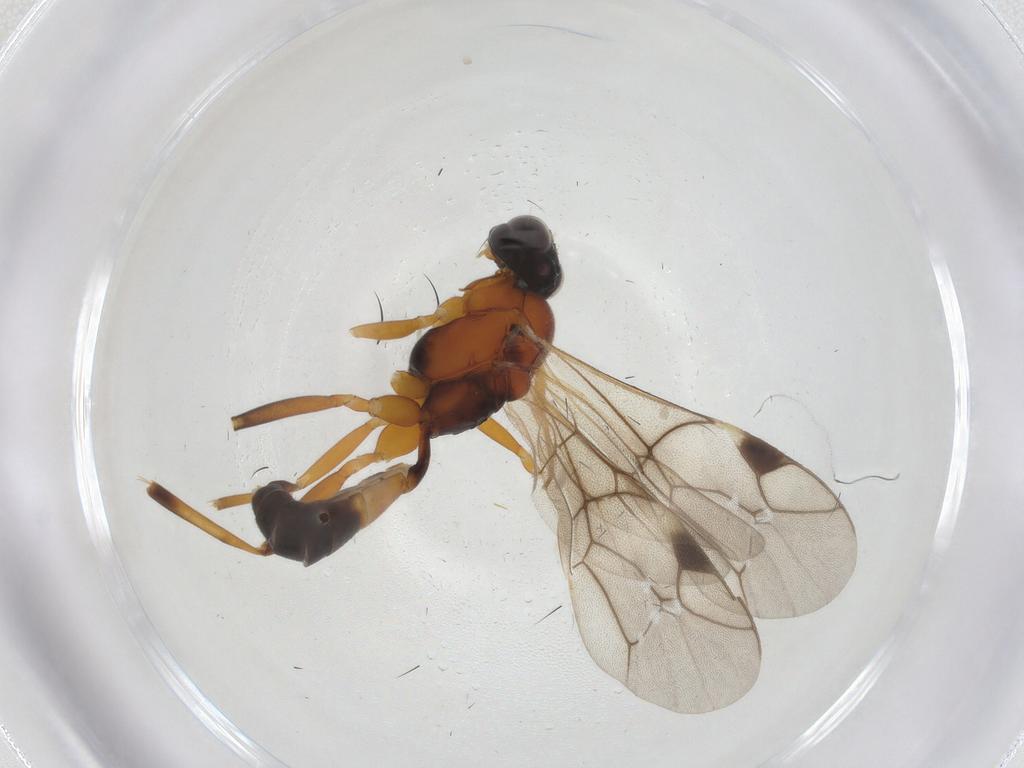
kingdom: Animalia
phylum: Arthropoda
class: Insecta
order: Hymenoptera
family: Ichneumonidae
